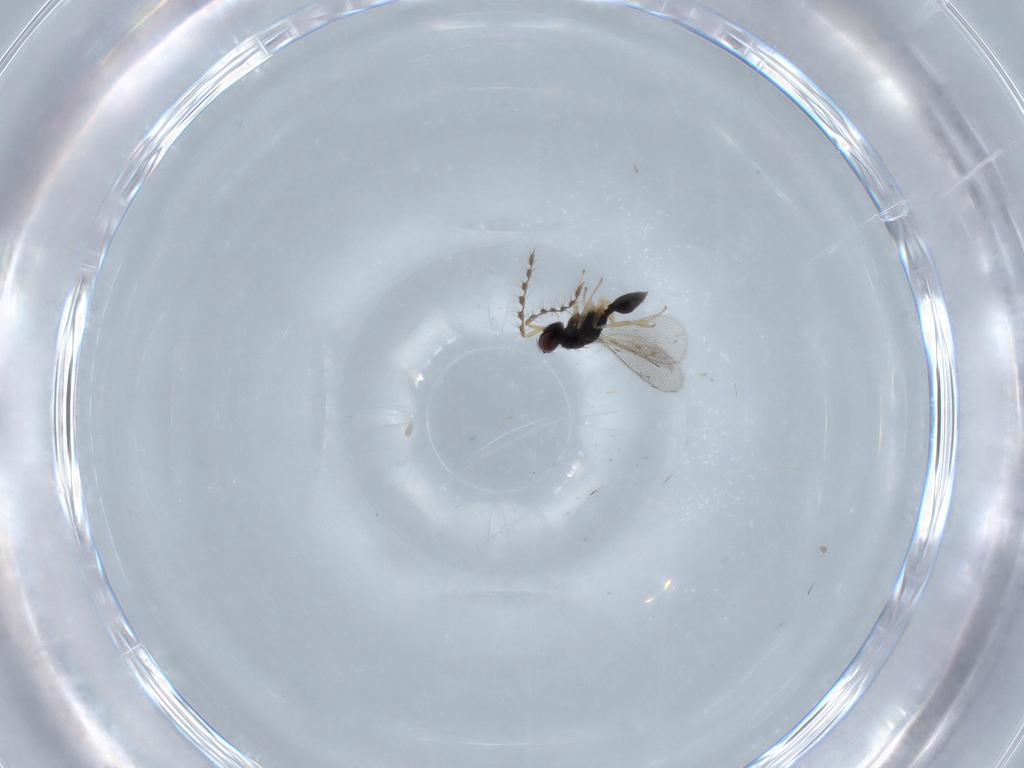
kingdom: Animalia
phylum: Arthropoda
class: Insecta
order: Hymenoptera
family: Eulophidae
